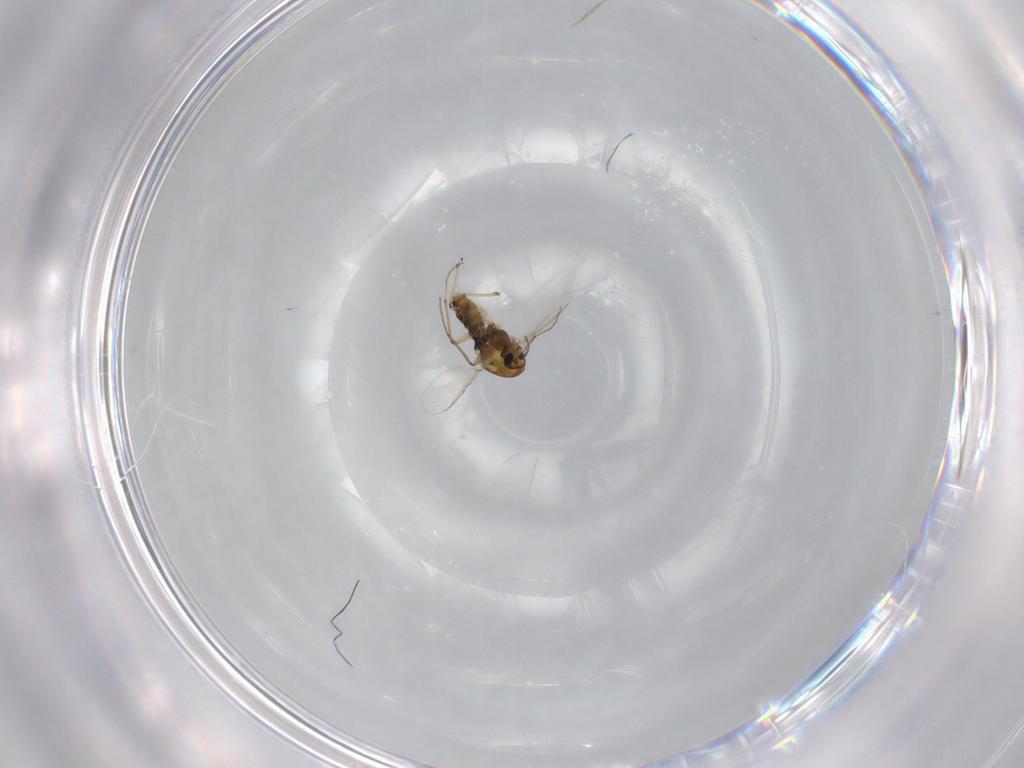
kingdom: Animalia
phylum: Arthropoda
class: Insecta
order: Diptera
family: Chironomidae
